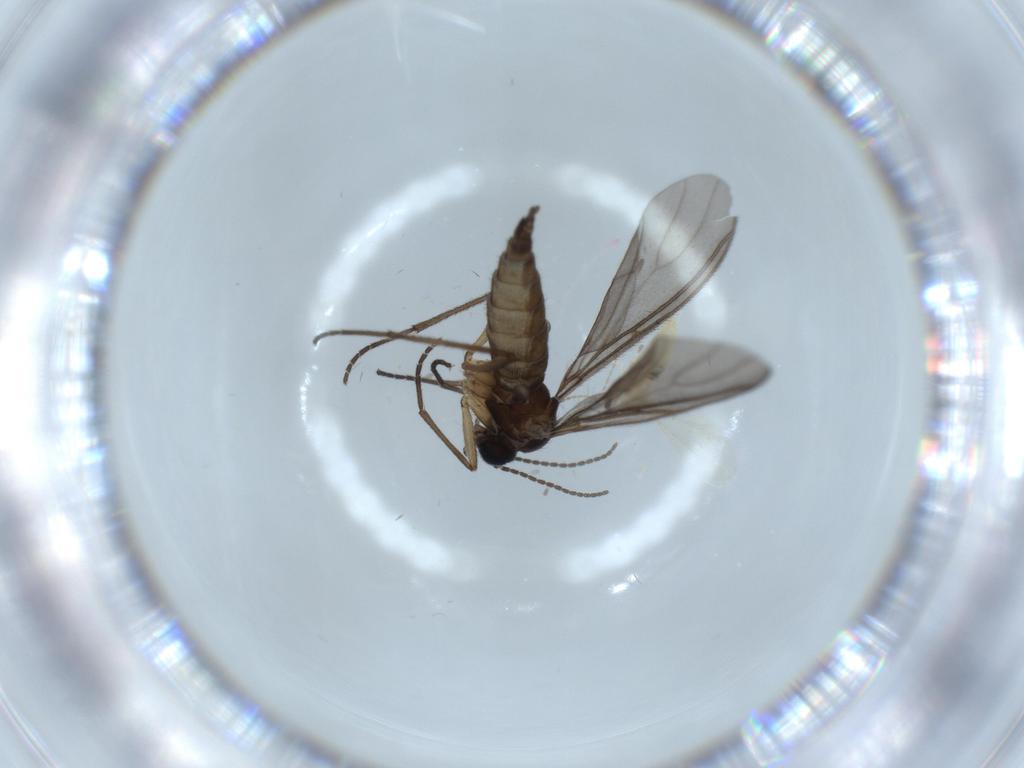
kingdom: Animalia
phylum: Arthropoda
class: Insecta
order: Diptera
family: Sciaridae
